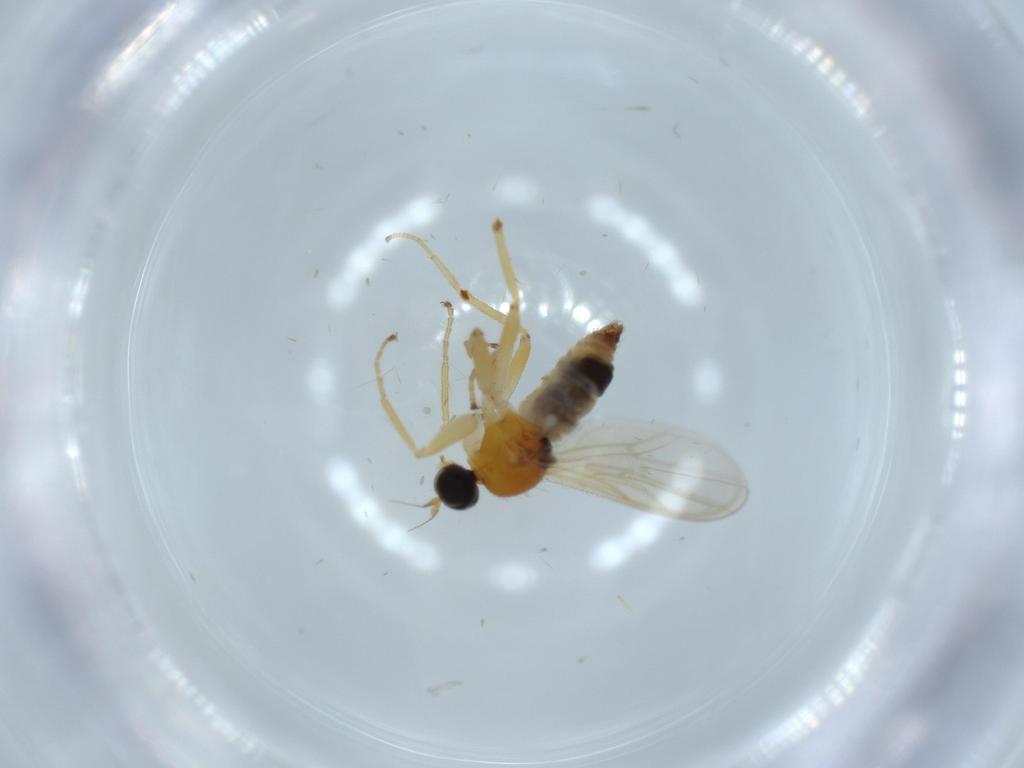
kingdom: Animalia
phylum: Arthropoda
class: Insecta
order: Diptera
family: Hybotidae
